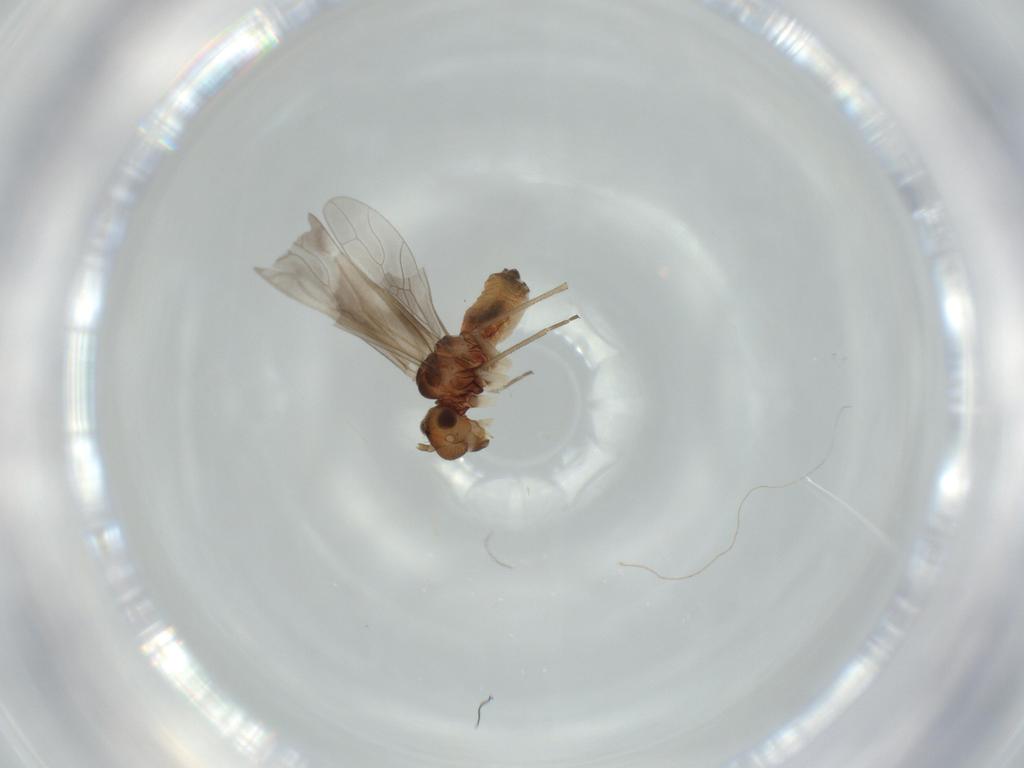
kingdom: Animalia
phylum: Arthropoda
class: Insecta
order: Psocodea
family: Caeciliusidae
